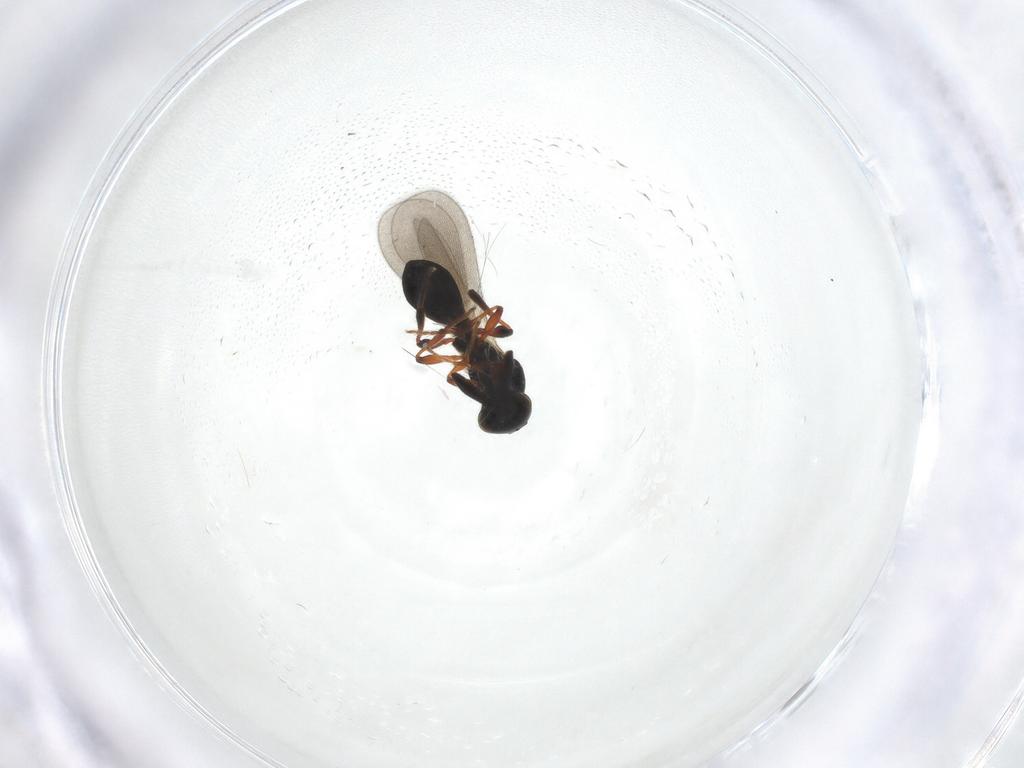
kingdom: Animalia
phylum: Arthropoda
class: Insecta
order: Hymenoptera
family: Platygastridae
